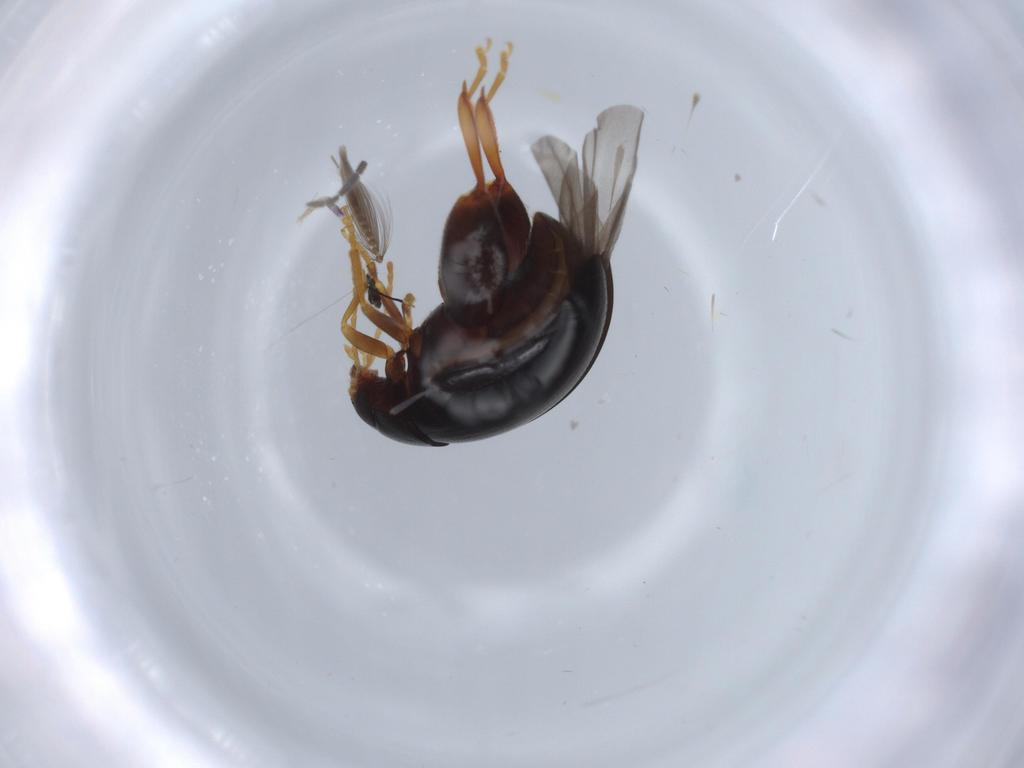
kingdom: Animalia
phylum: Arthropoda
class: Insecta
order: Coleoptera
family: Chrysomelidae
